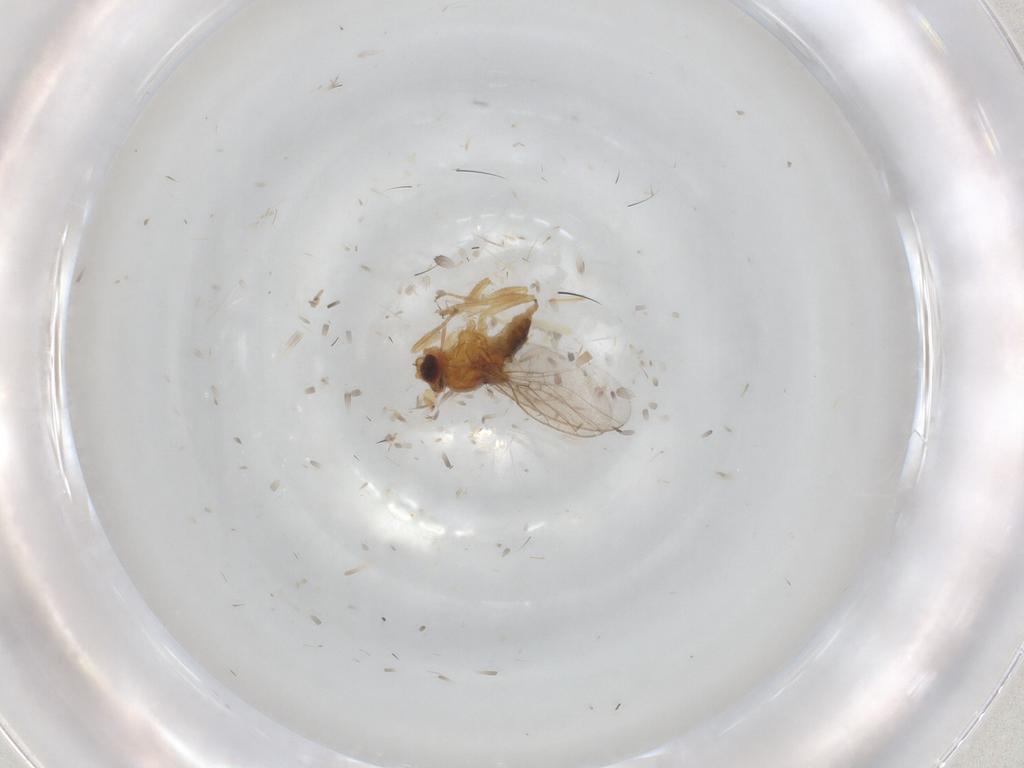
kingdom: Animalia
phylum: Arthropoda
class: Insecta
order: Diptera
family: Chloropidae
